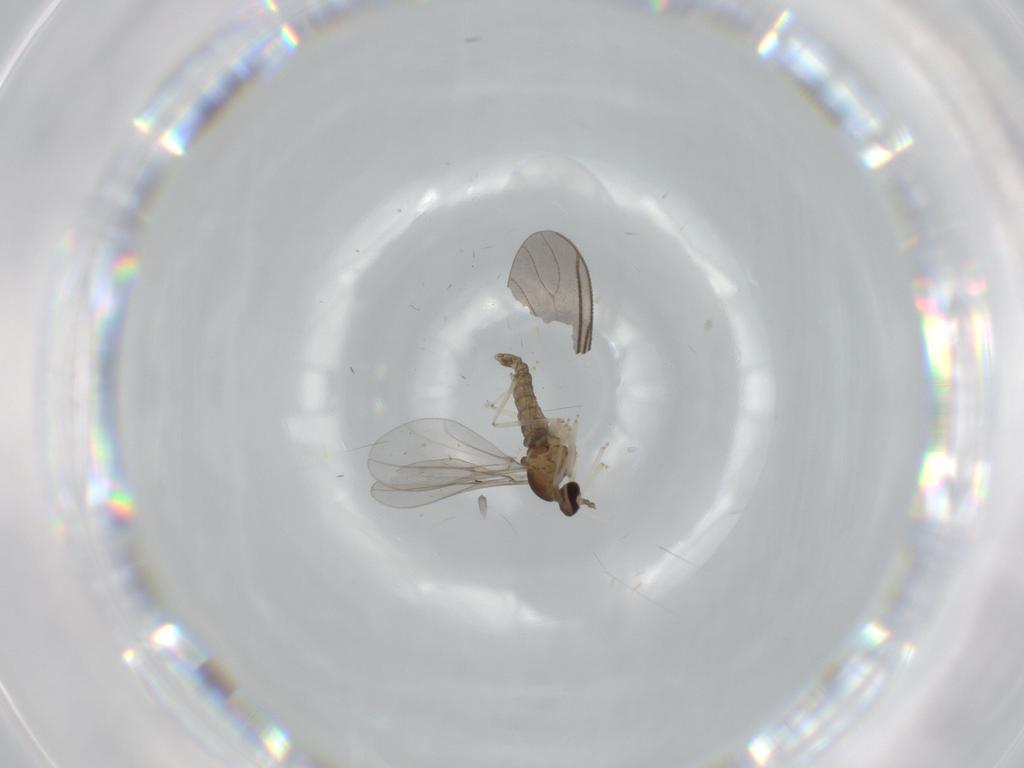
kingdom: Animalia
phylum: Arthropoda
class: Insecta
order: Diptera
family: Cecidomyiidae
